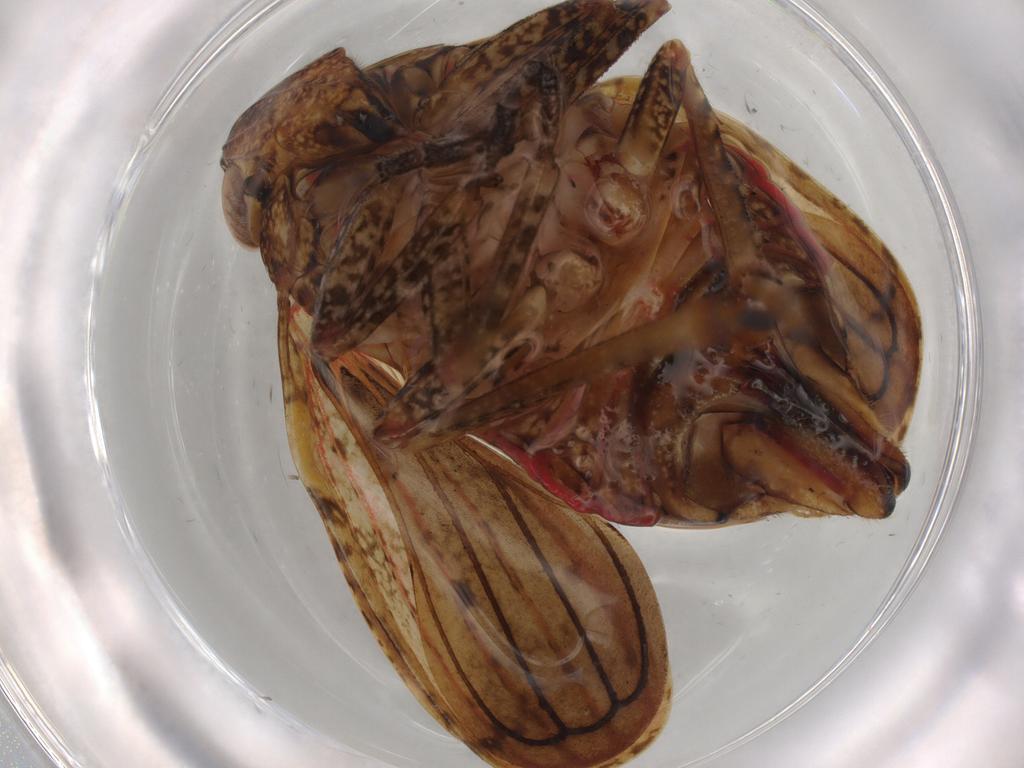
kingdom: Animalia
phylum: Arthropoda
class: Insecta
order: Hemiptera
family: Tropiduchidae
